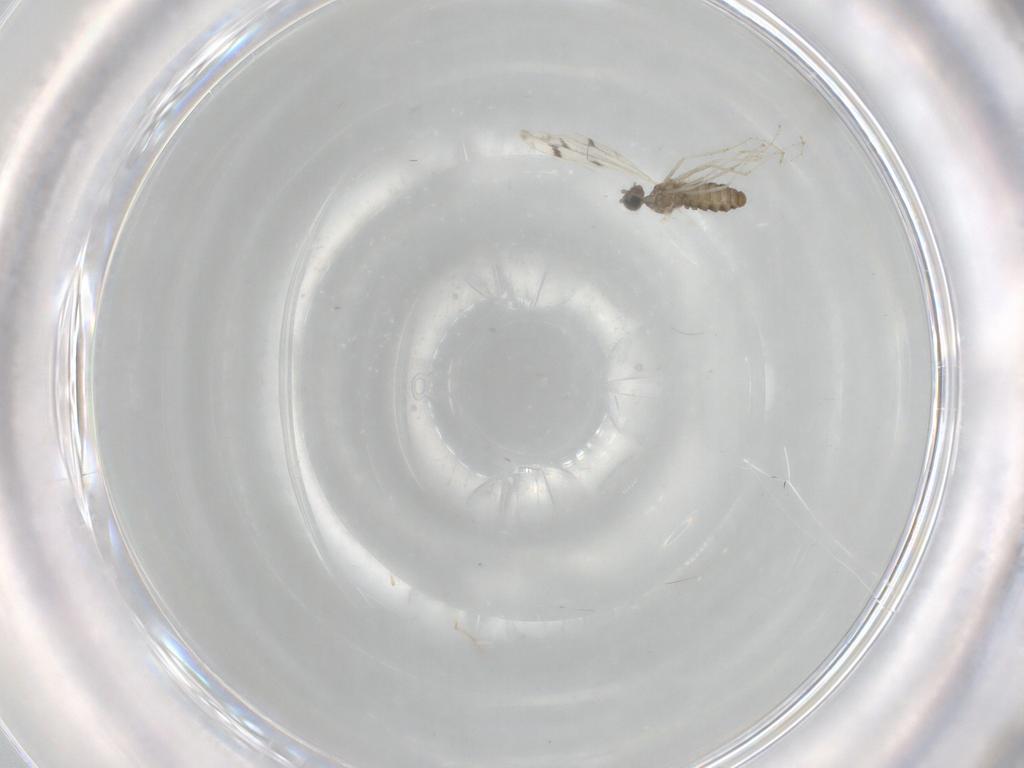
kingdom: Animalia
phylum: Arthropoda
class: Insecta
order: Diptera
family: Cecidomyiidae
